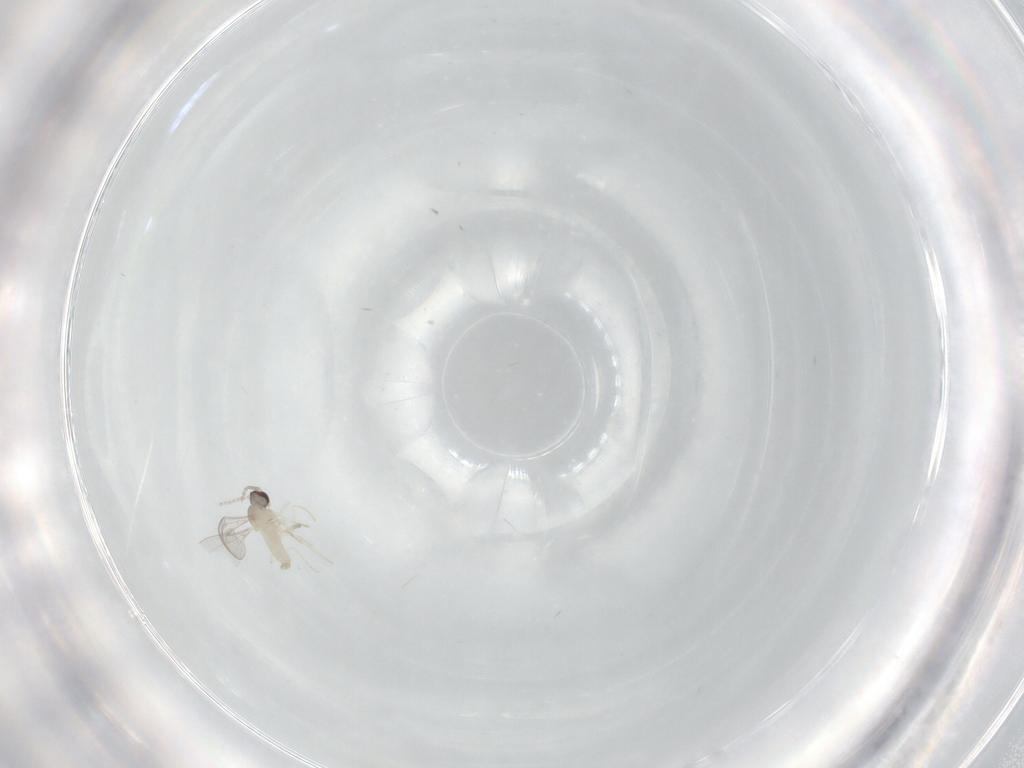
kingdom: Animalia
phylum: Arthropoda
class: Insecta
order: Diptera
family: Cecidomyiidae
